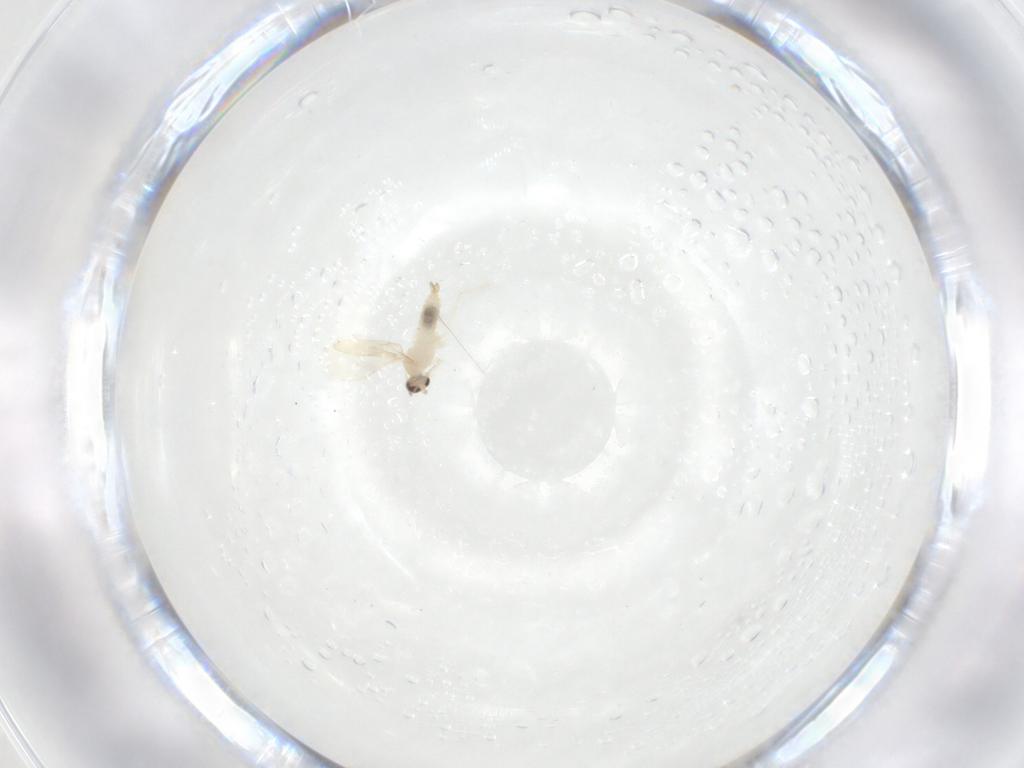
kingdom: Animalia
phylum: Arthropoda
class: Insecta
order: Diptera
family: Cecidomyiidae
